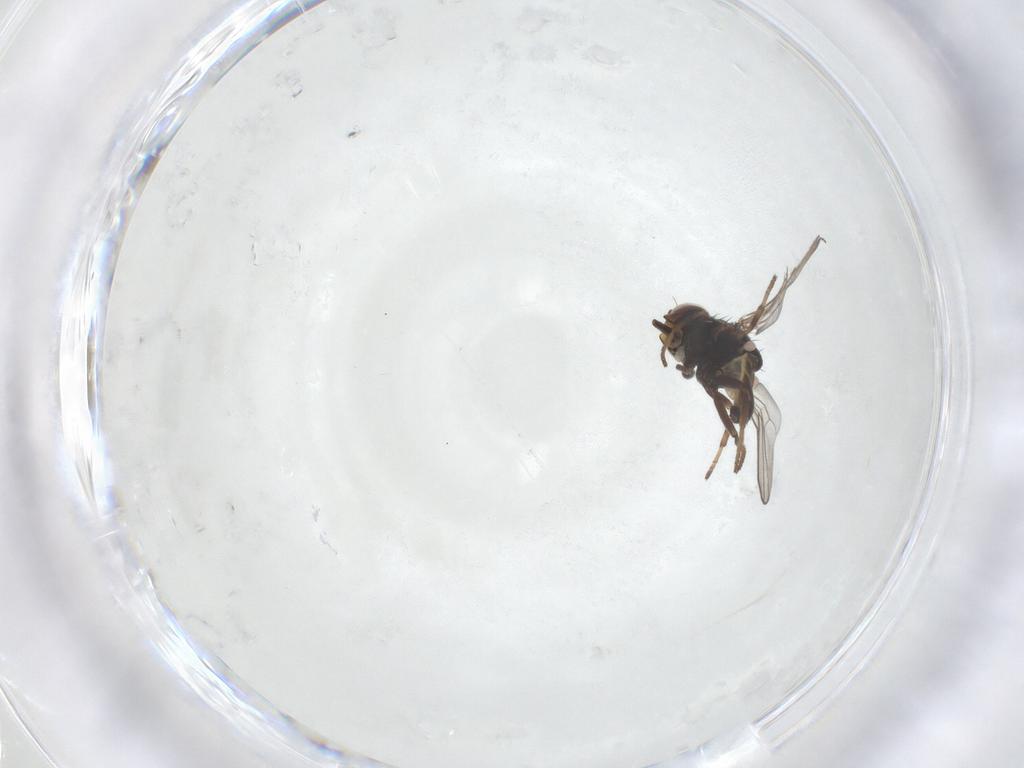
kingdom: Animalia
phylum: Arthropoda
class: Insecta
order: Diptera
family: Chloropidae
